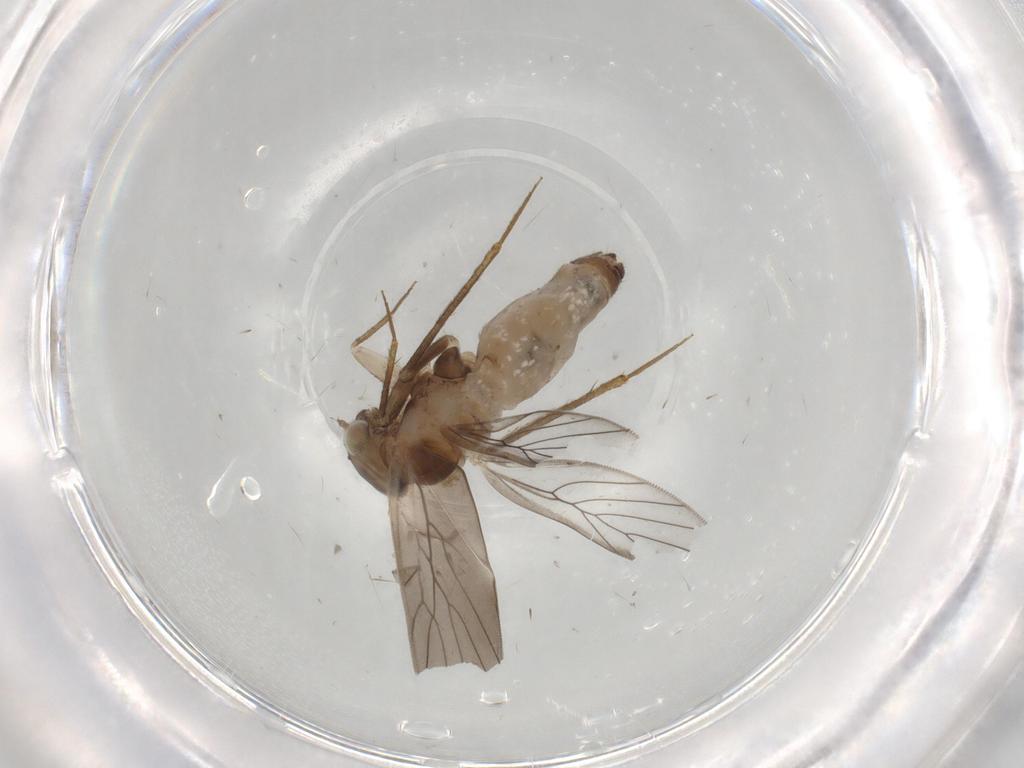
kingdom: Animalia
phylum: Arthropoda
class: Insecta
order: Psocodea
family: Lepidopsocidae
